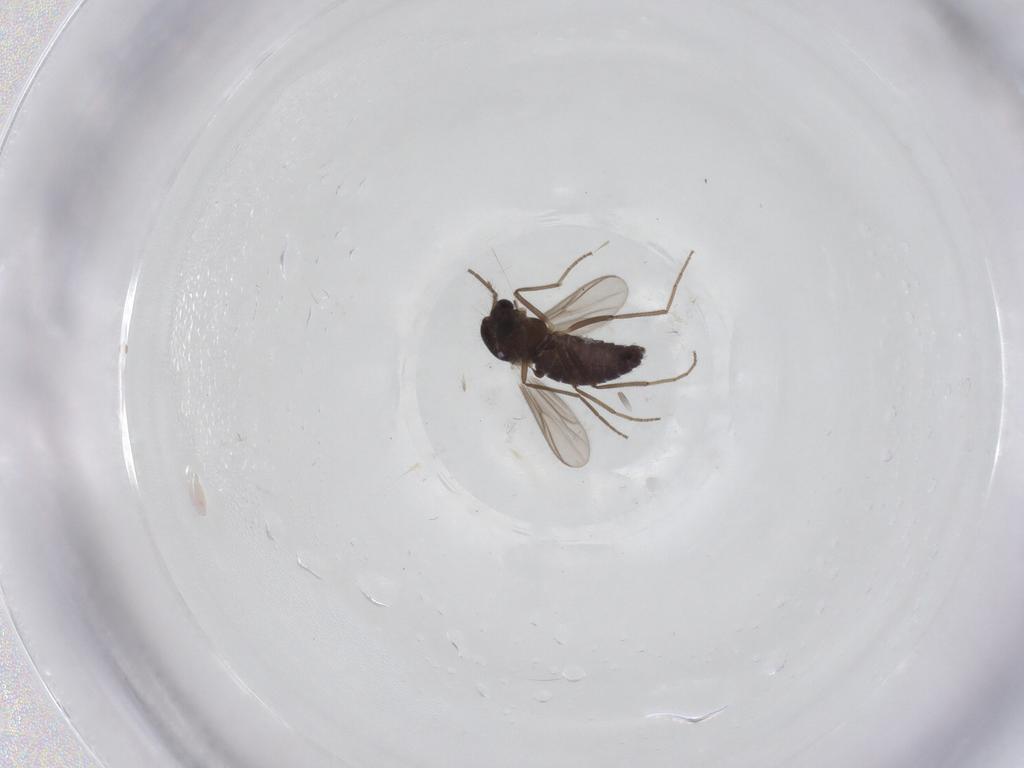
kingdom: Animalia
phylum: Arthropoda
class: Insecta
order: Diptera
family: Chironomidae
